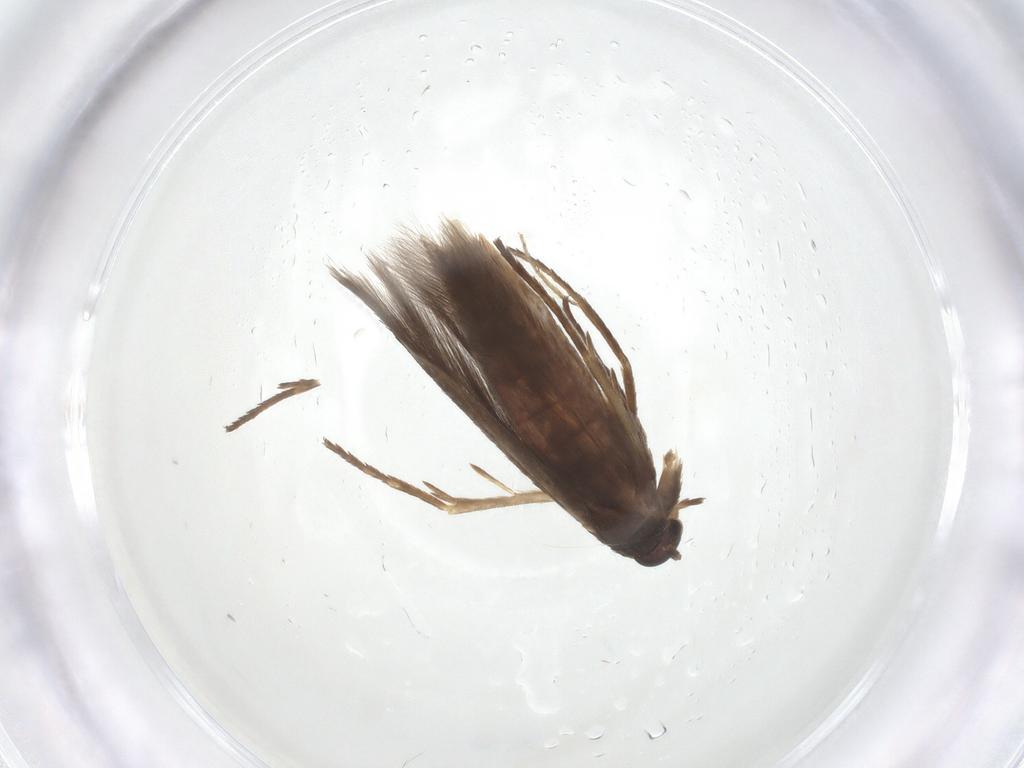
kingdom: Animalia
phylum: Arthropoda
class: Insecta
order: Lepidoptera
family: Scythrididae
